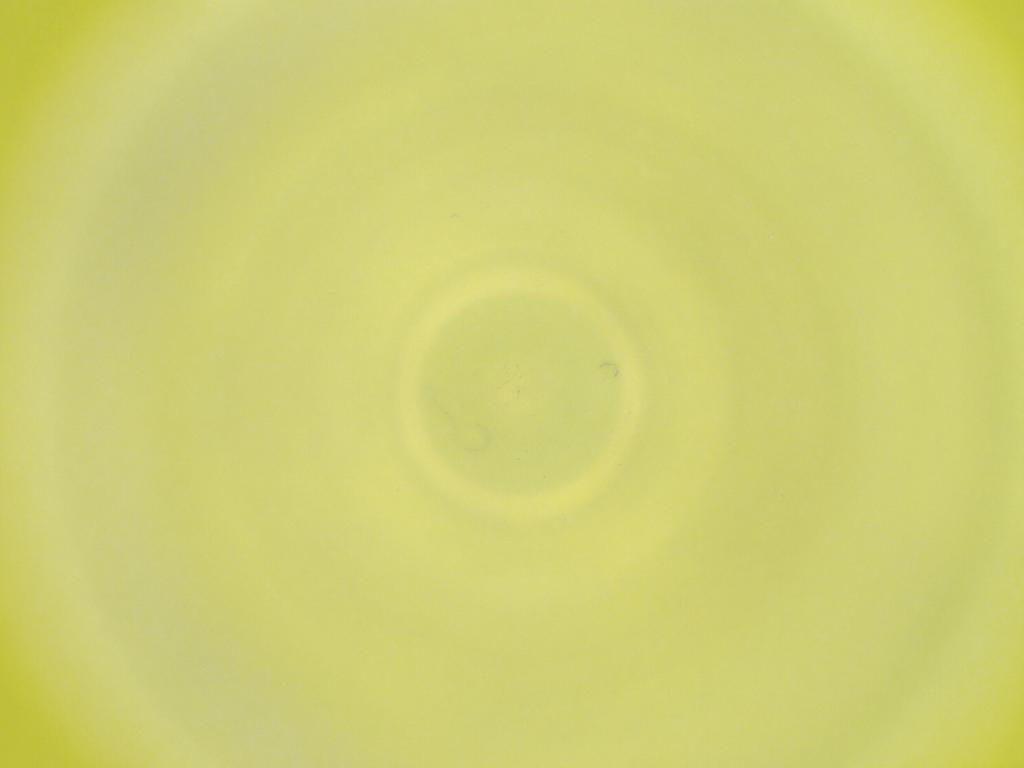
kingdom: Animalia
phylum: Arthropoda
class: Insecta
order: Diptera
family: Cecidomyiidae
